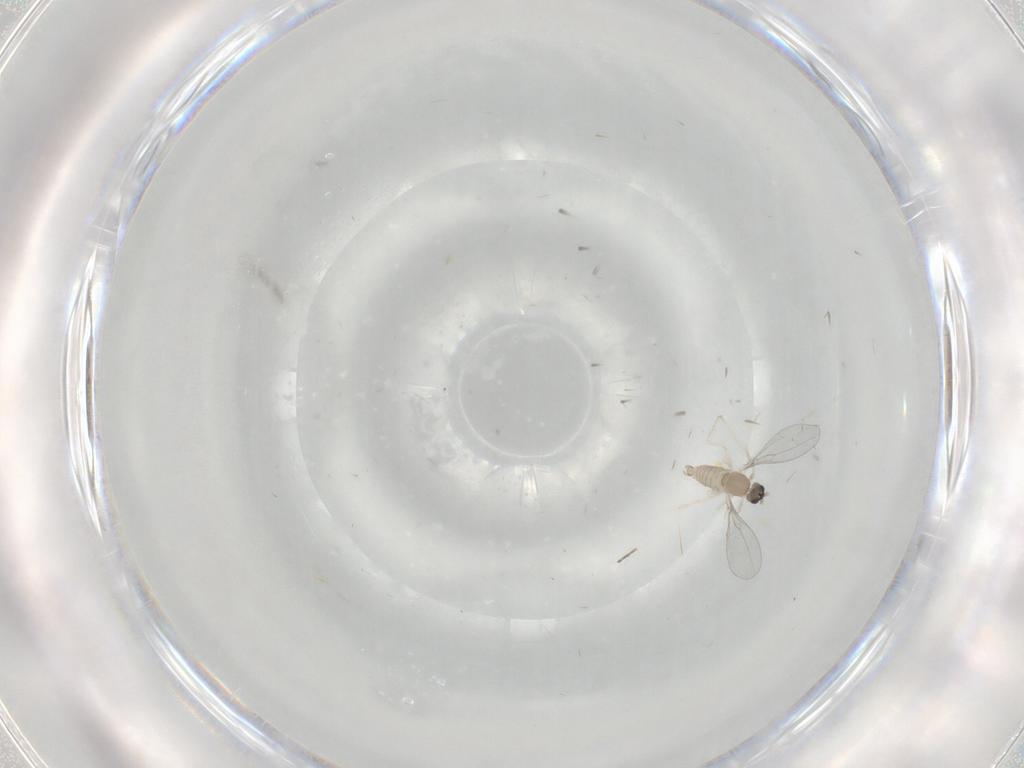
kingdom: Animalia
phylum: Arthropoda
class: Insecta
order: Diptera
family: Cecidomyiidae
